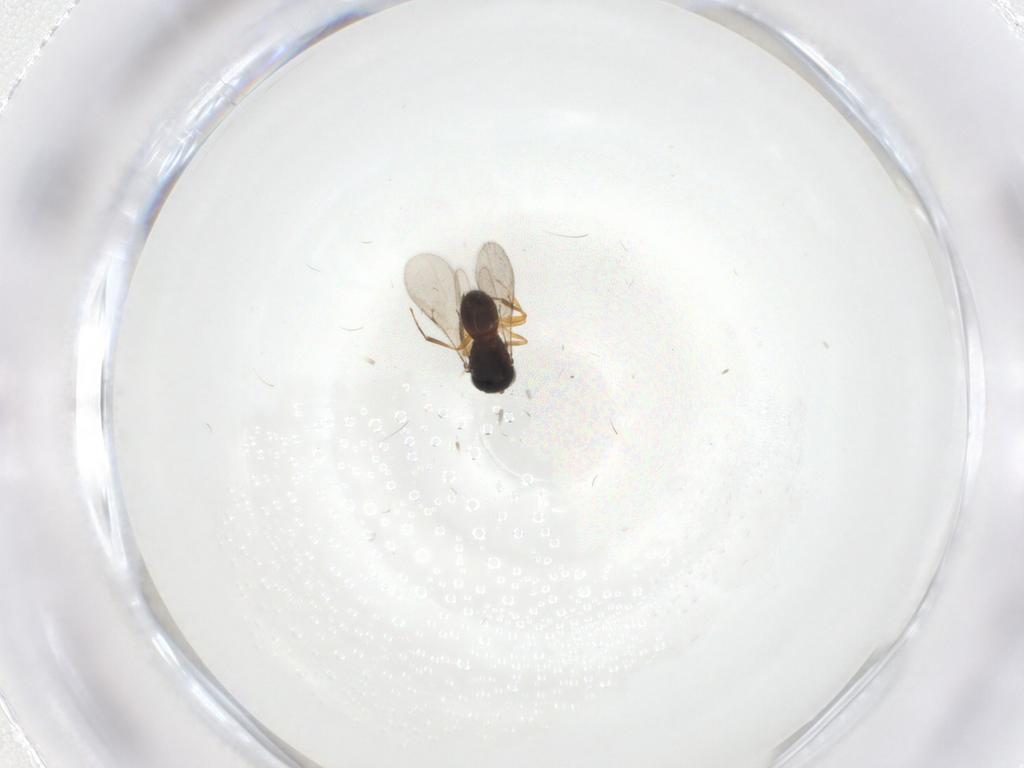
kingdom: Animalia
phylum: Arthropoda
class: Insecta
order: Hymenoptera
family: Scelionidae
